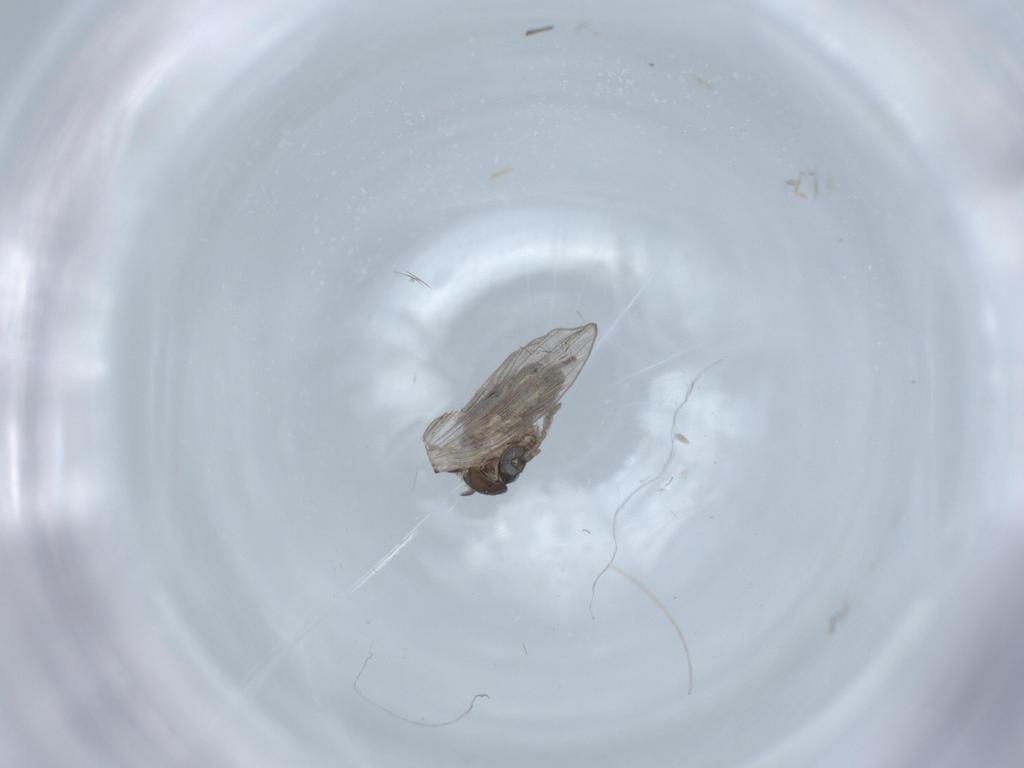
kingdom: Animalia
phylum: Arthropoda
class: Insecta
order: Diptera
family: Psychodidae
